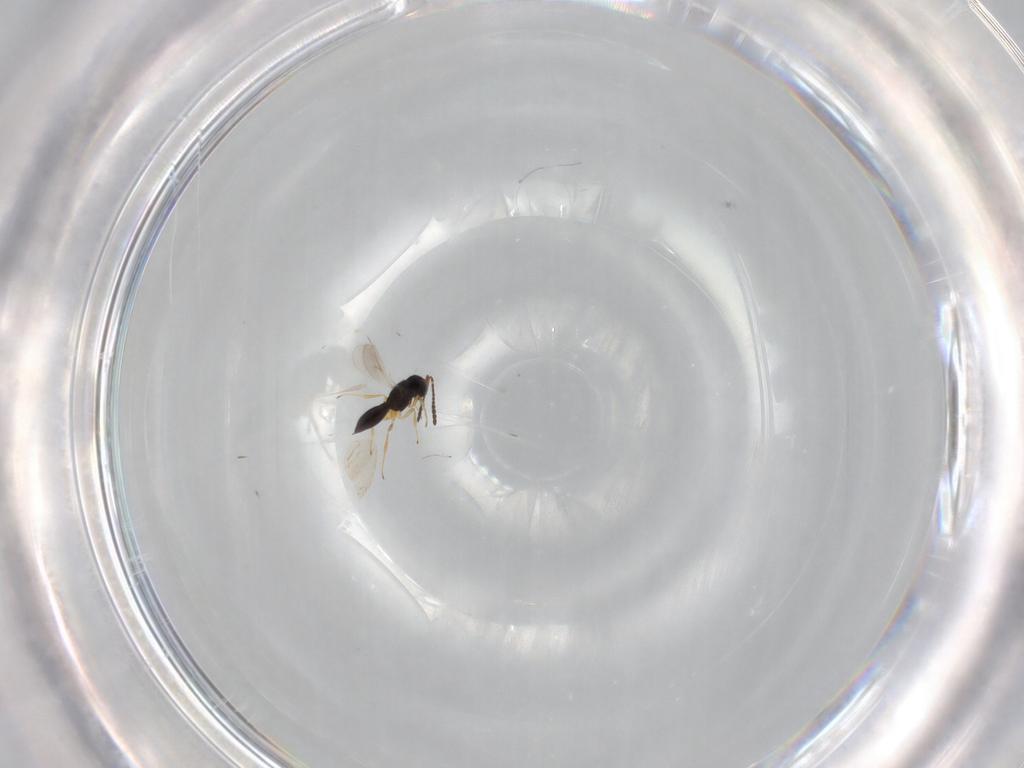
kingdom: Animalia
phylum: Arthropoda
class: Insecta
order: Hymenoptera
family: Scelionidae
